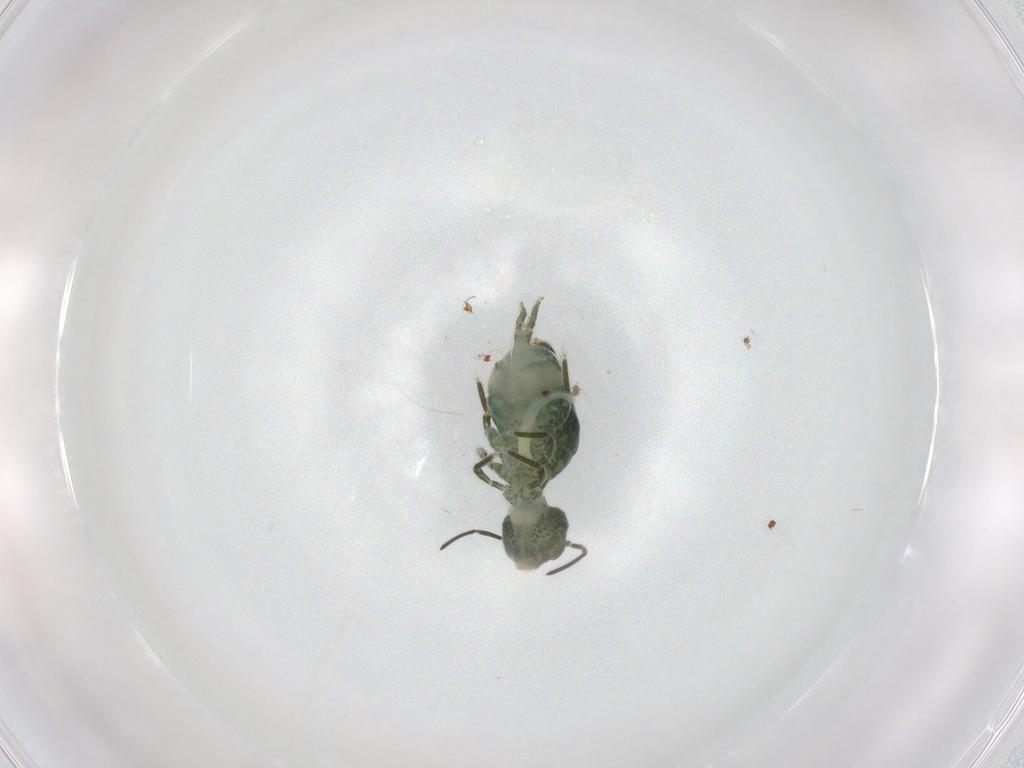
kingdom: Animalia
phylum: Arthropoda
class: Collembola
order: Symphypleona
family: Sminthuridae
